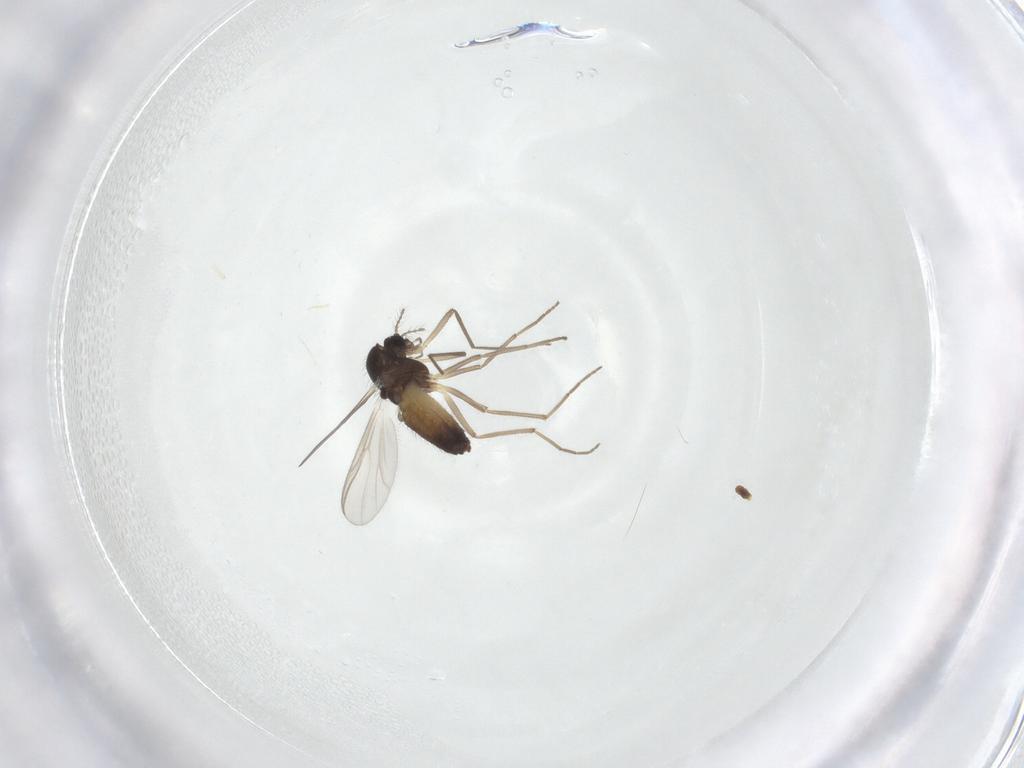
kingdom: Animalia
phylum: Arthropoda
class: Insecta
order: Diptera
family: Chironomidae
